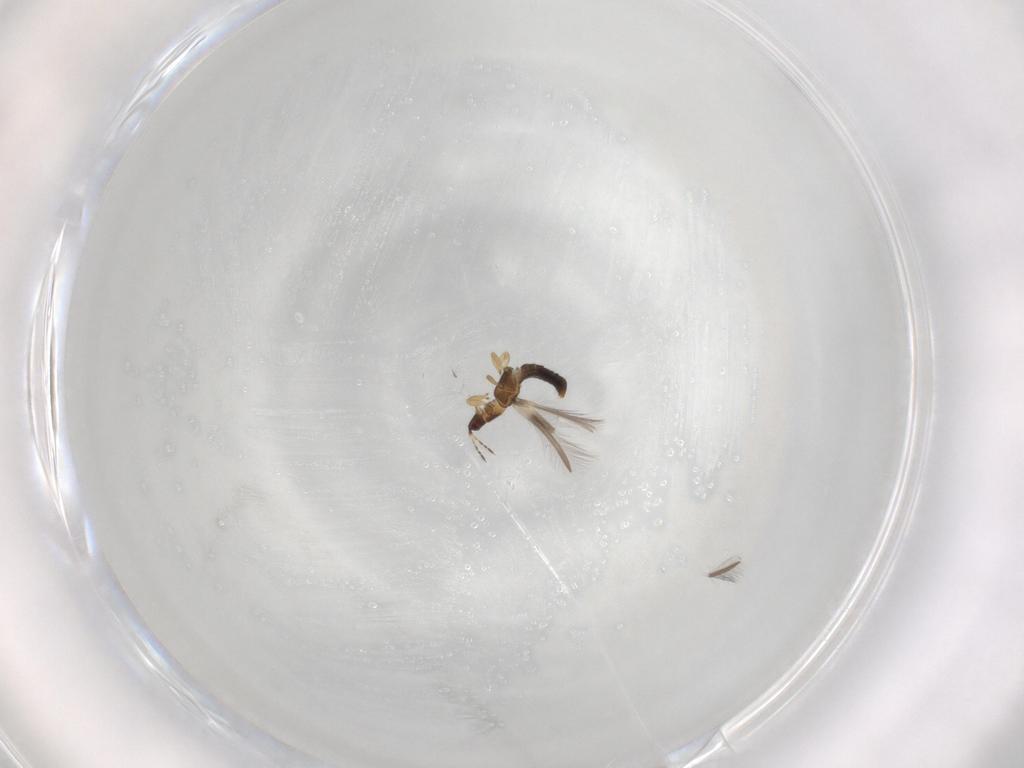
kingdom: Animalia
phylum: Arthropoda
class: Insecta
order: Thysanoptera
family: Thripidae
